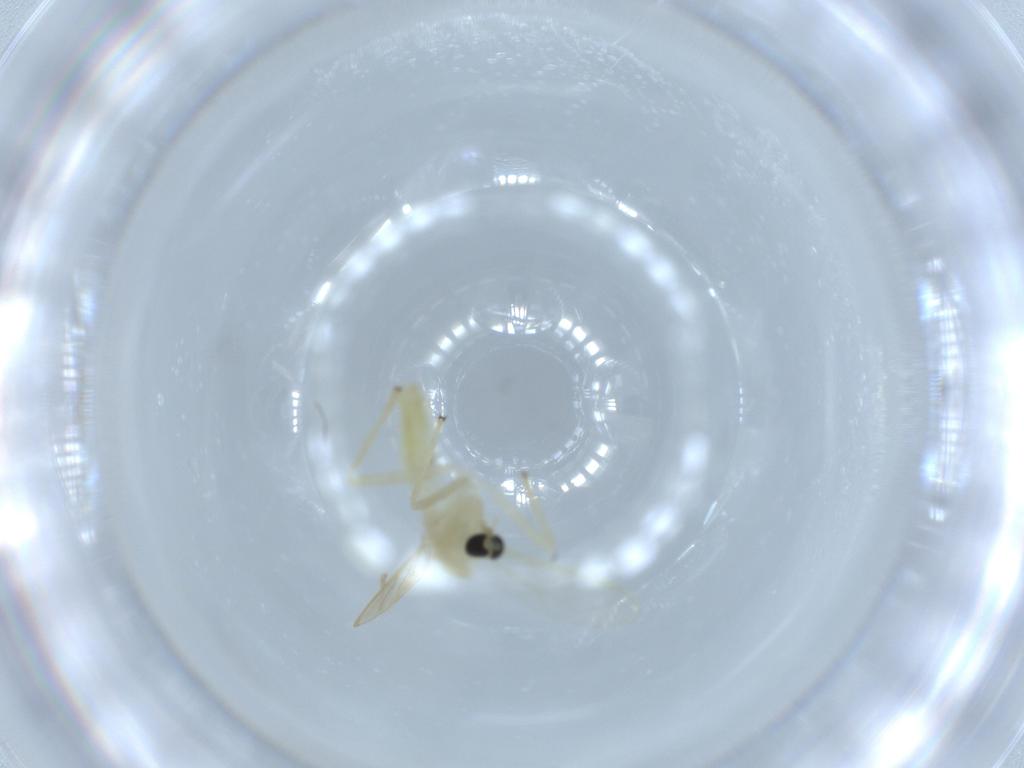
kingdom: Animalia
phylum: Arthropoda
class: Insecta
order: Diptera
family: Chironomidae
